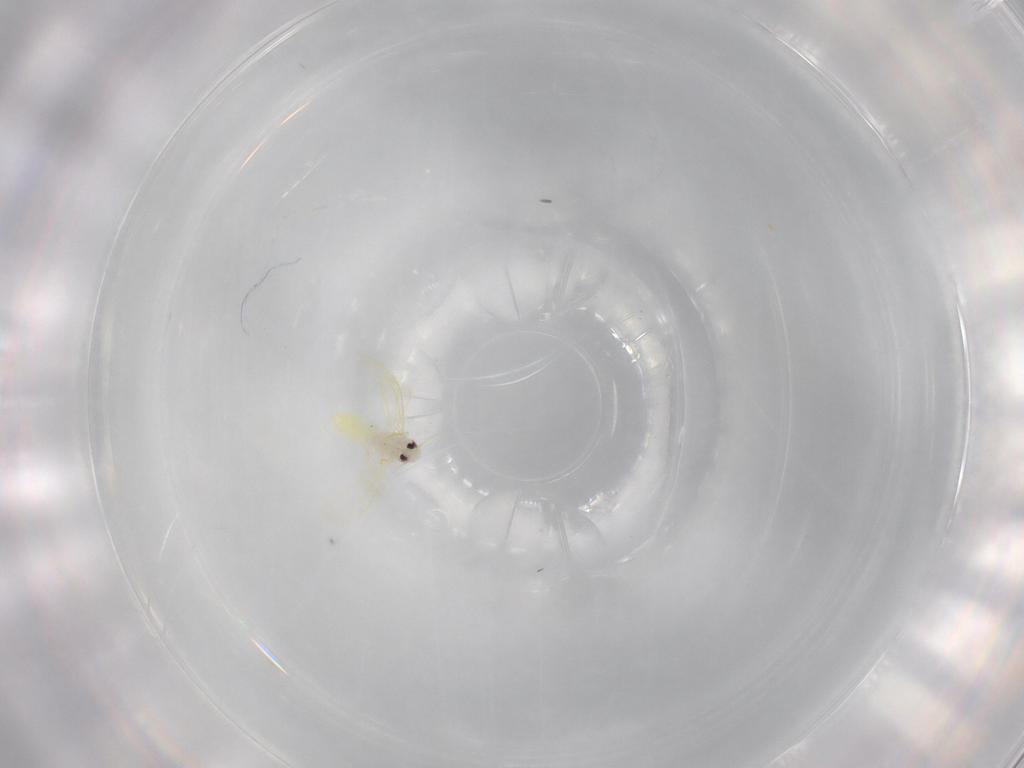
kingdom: Animalia
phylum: Arthropoda
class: Insecta
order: Hemiptera
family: Aleyrodidae
